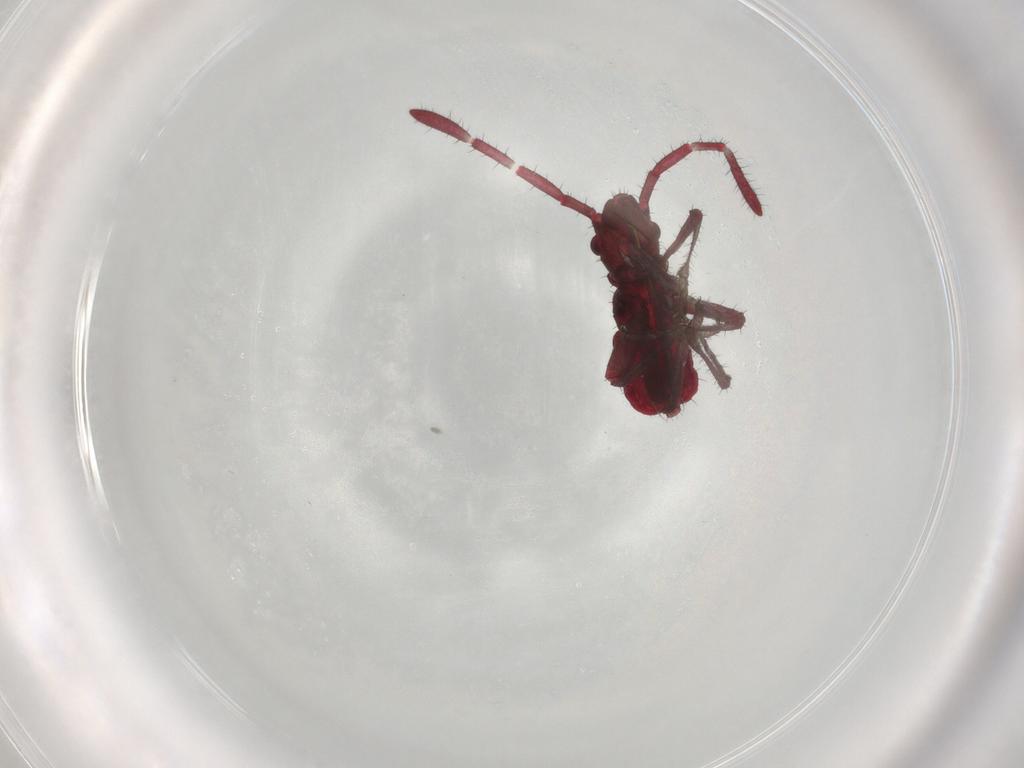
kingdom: Animalia
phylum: Arthropoda
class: Insecta
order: Hemiptera
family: Coreidae
